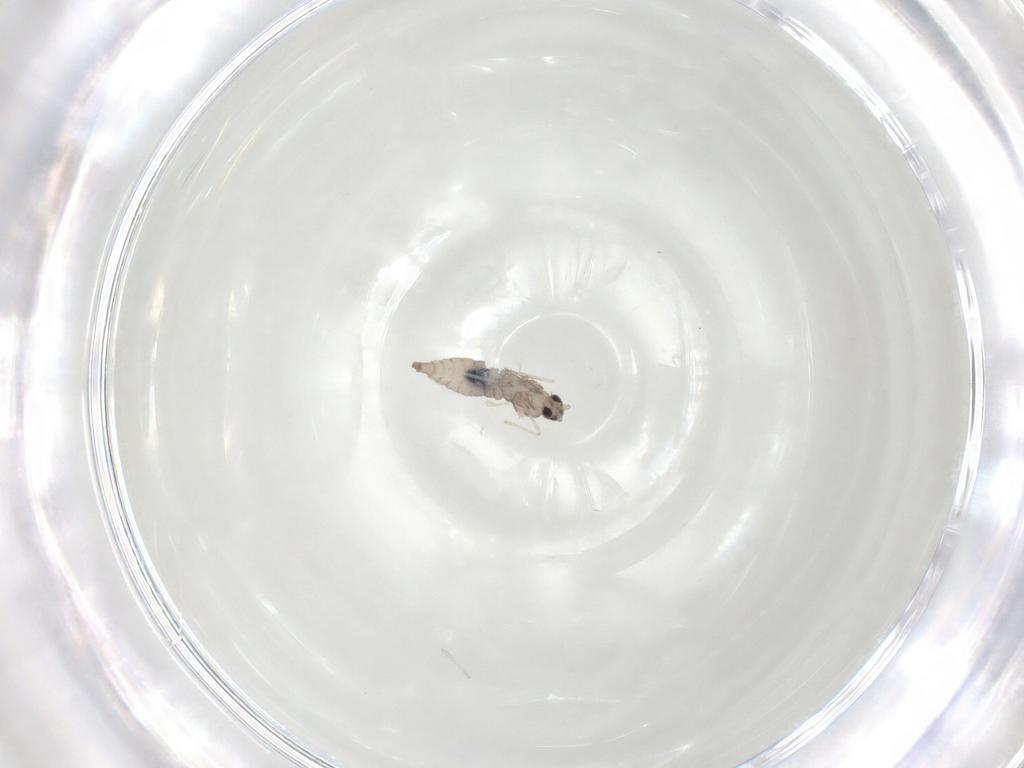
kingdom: Animalia
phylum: Arthropoda
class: Insecta
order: Diptera
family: Cecidomyiidae
